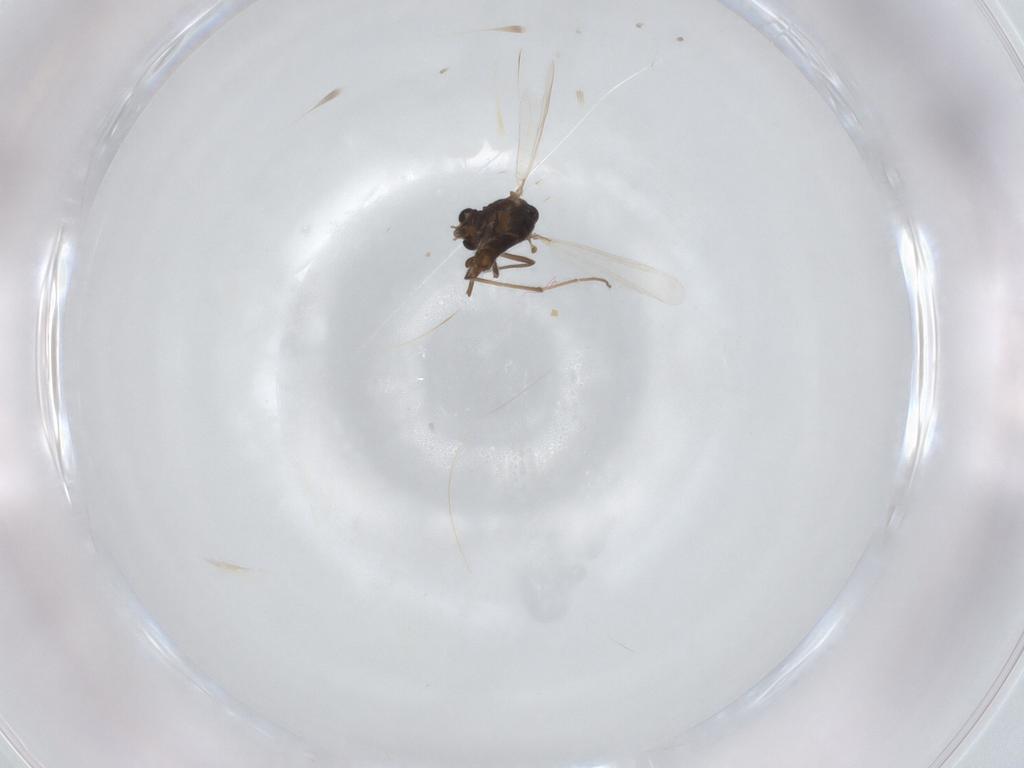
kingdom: Animalia
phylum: Arthropoda
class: Insecta
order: Diptera
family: Chironomidae
